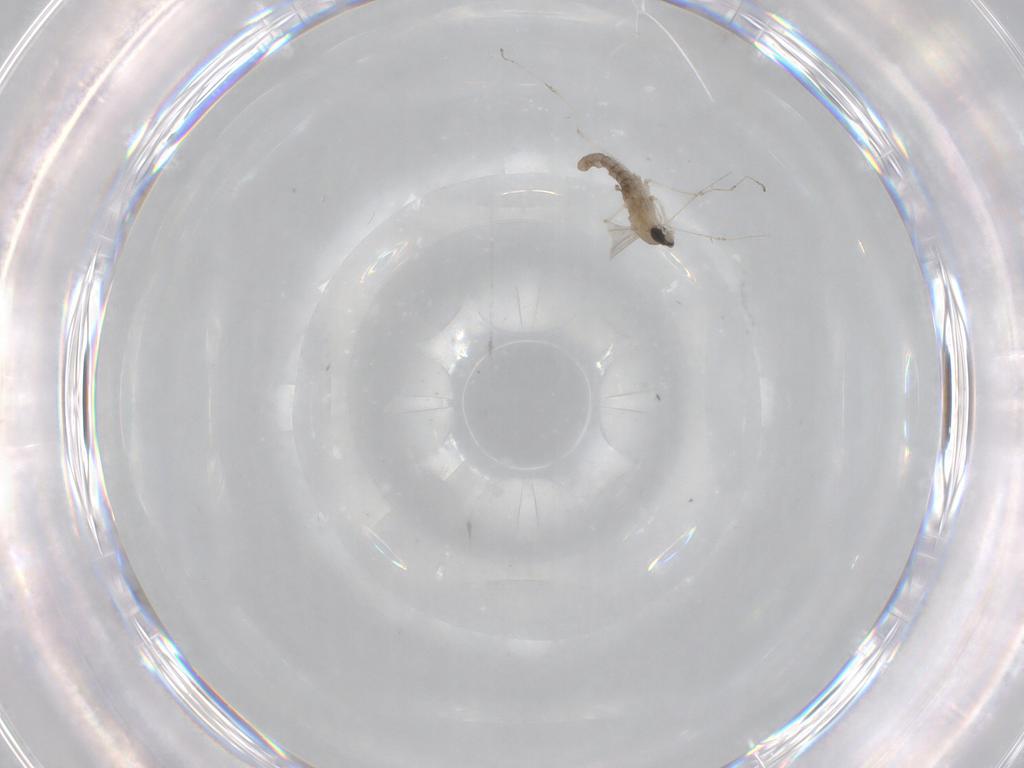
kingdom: Animalia
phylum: Arthropoda
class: Insecta
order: Diptera
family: Cecidomyiidae
